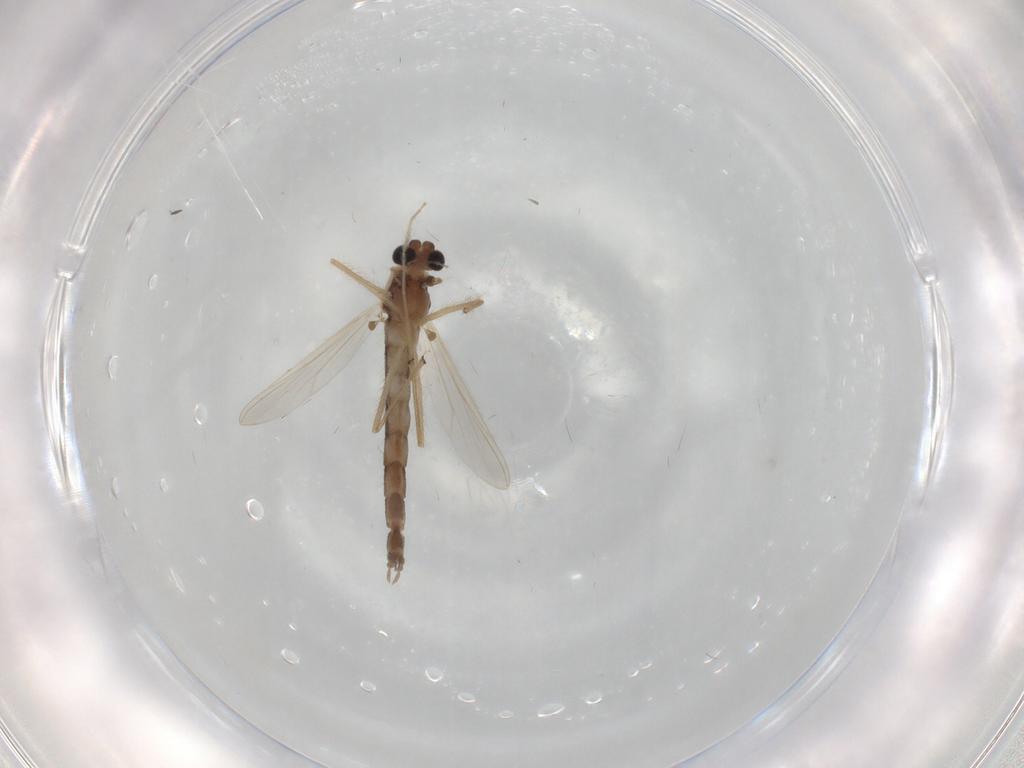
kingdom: Animalia
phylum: Arthropoda
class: Insecta
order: Diptera
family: Chironomidae
